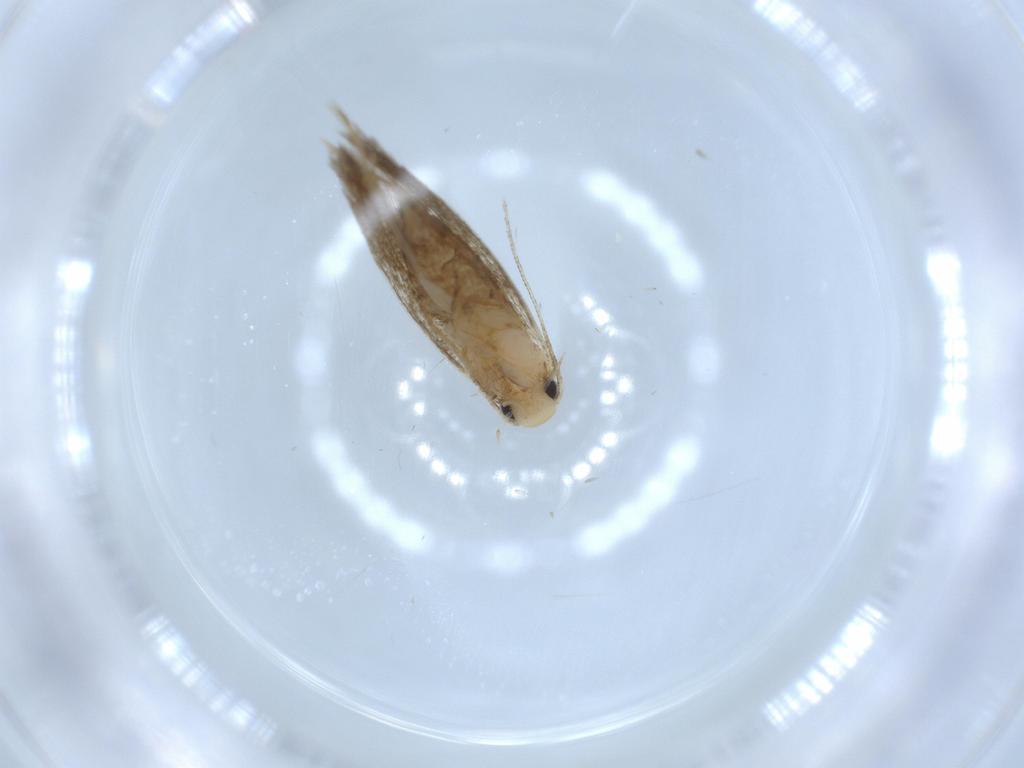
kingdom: Animalia
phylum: Arthropoda
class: Insecta
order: Lepidoptera
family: Tineidae
